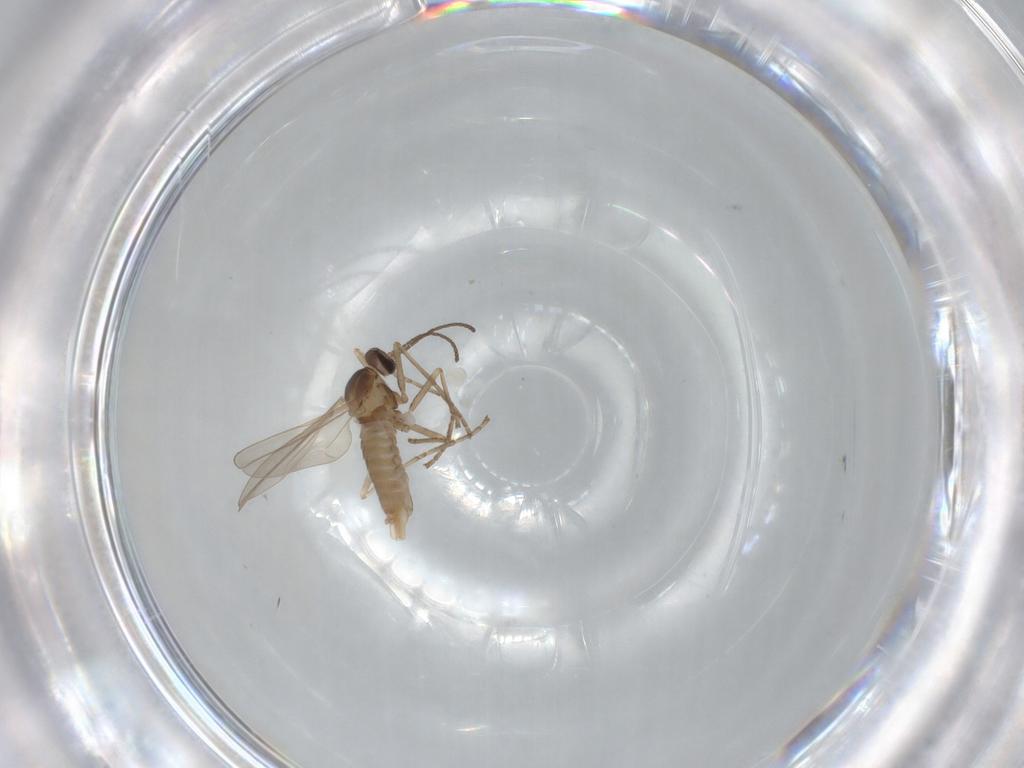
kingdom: Animalia
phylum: Arthropoda
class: Insecta
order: Diptera
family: Cecidomyiidae
